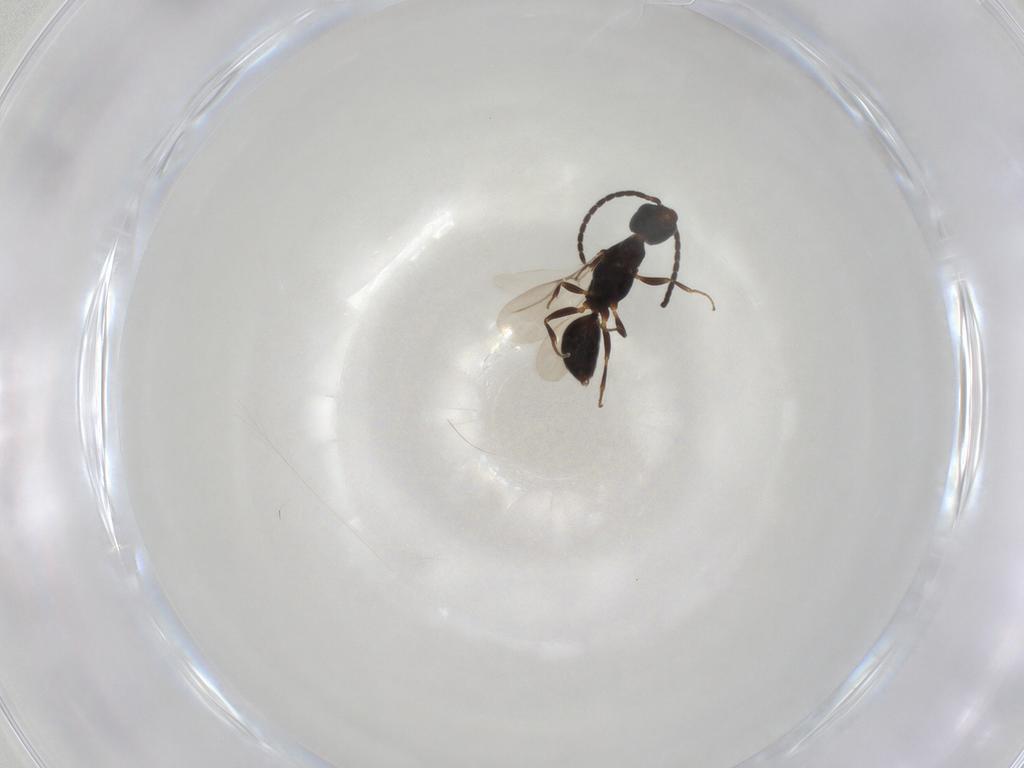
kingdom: Animalia
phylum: Arthropoda
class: Insecta
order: Hymenoptera
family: Bethylidae
